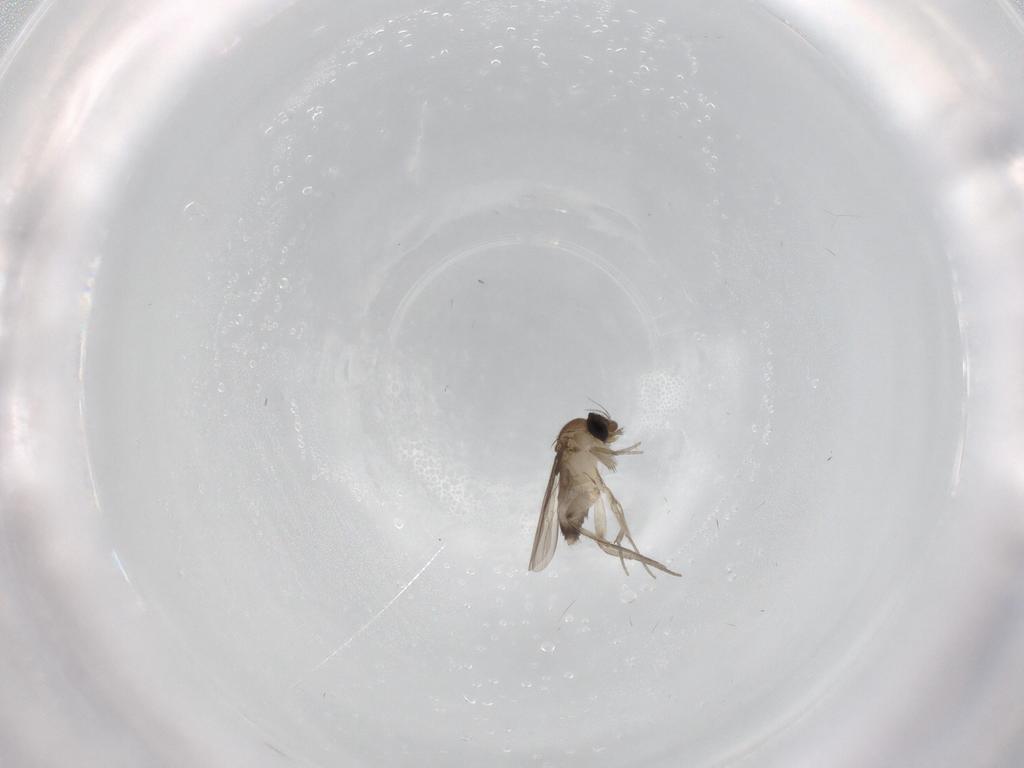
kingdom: Animalia
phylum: Arthropoda
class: Insecta
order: Diptera
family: Phoridae
